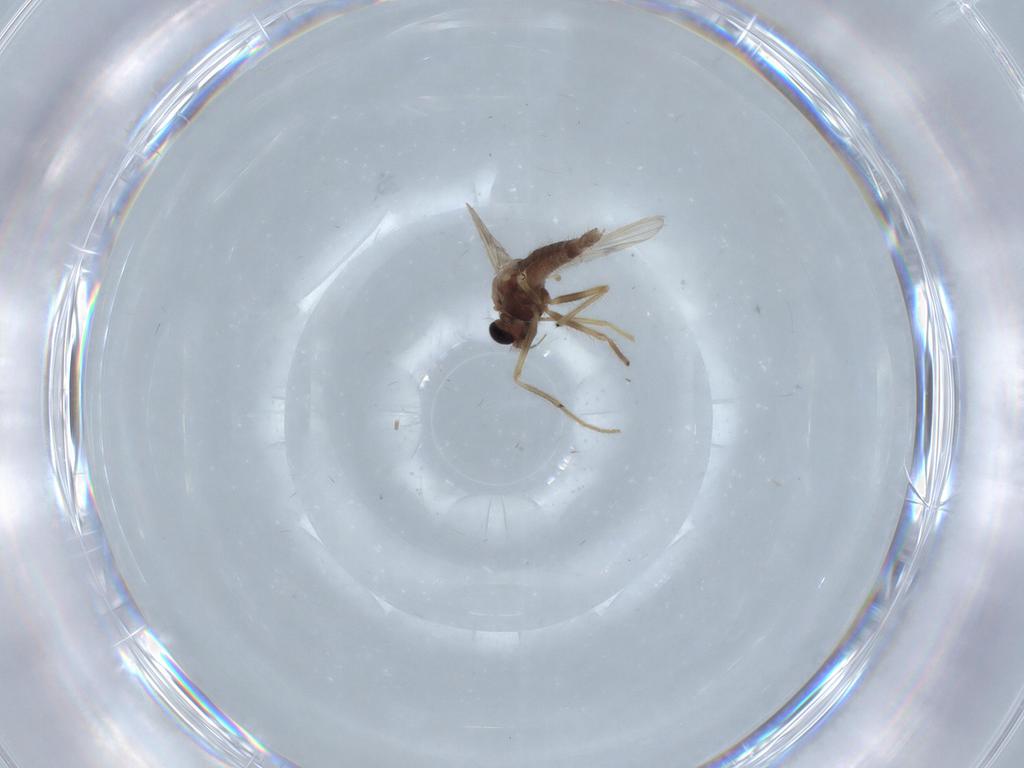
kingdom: Animalia
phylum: Arthropoda
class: Insecta
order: Diptera
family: Chironomidae
